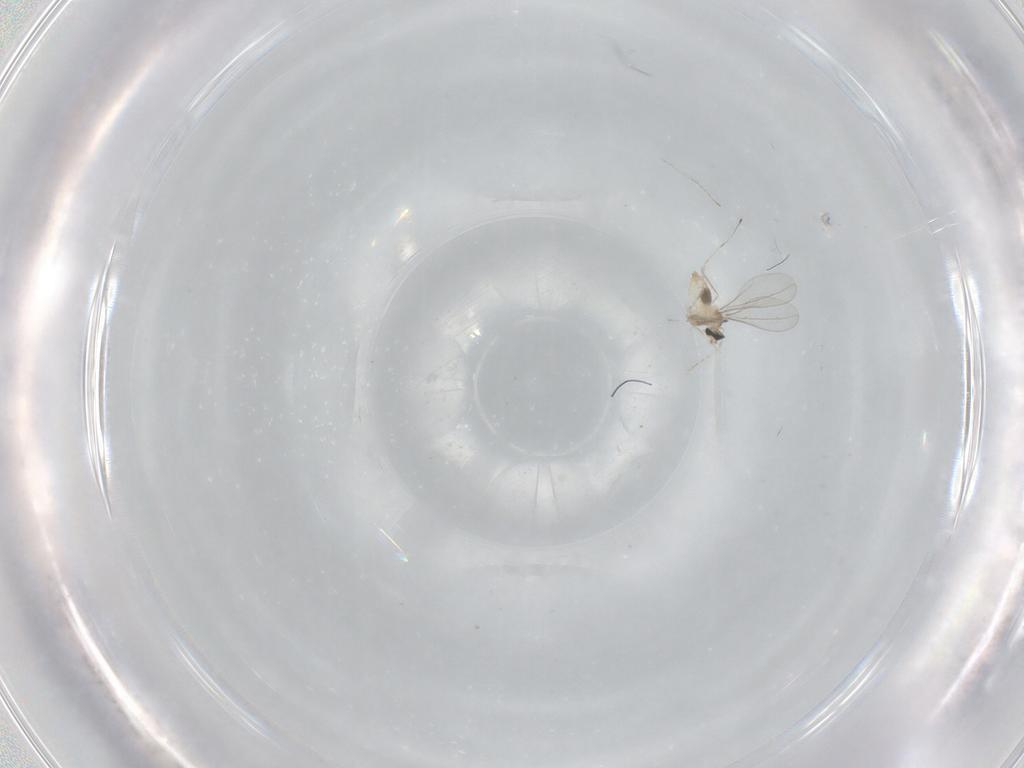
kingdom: Animalia
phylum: Arthropoda
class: Insecta
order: Diptera
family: Cecidomyiidae
